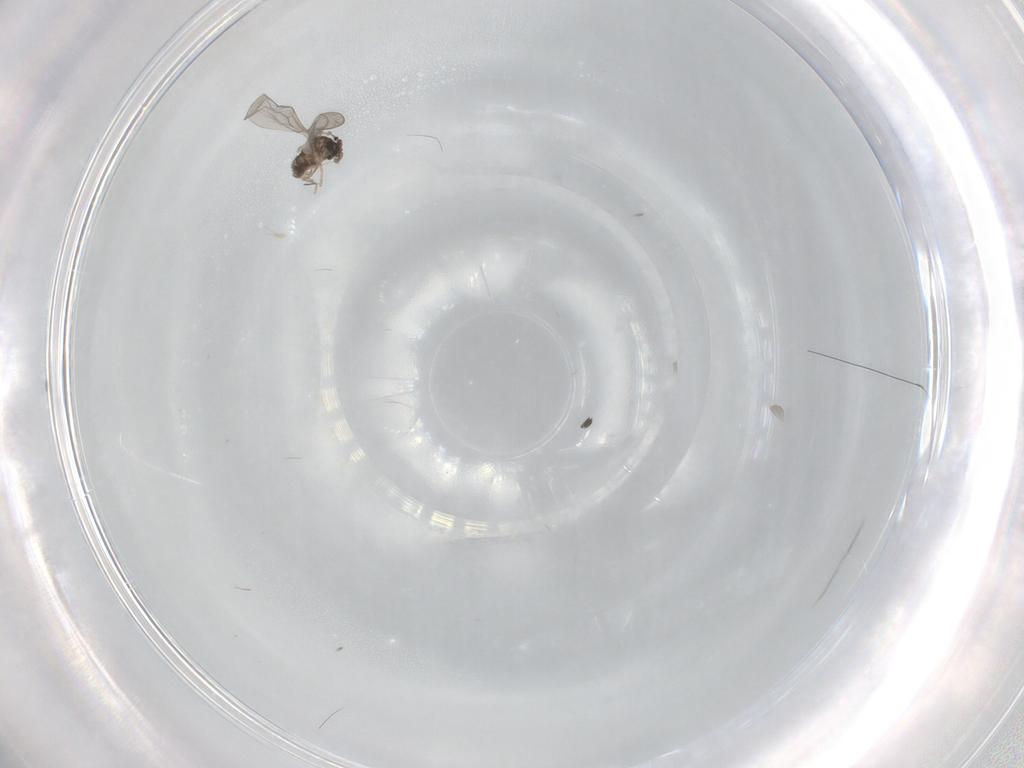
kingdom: Animalia
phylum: Arthropoda
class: Insecta
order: Diptera
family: Cecidomyiidae
